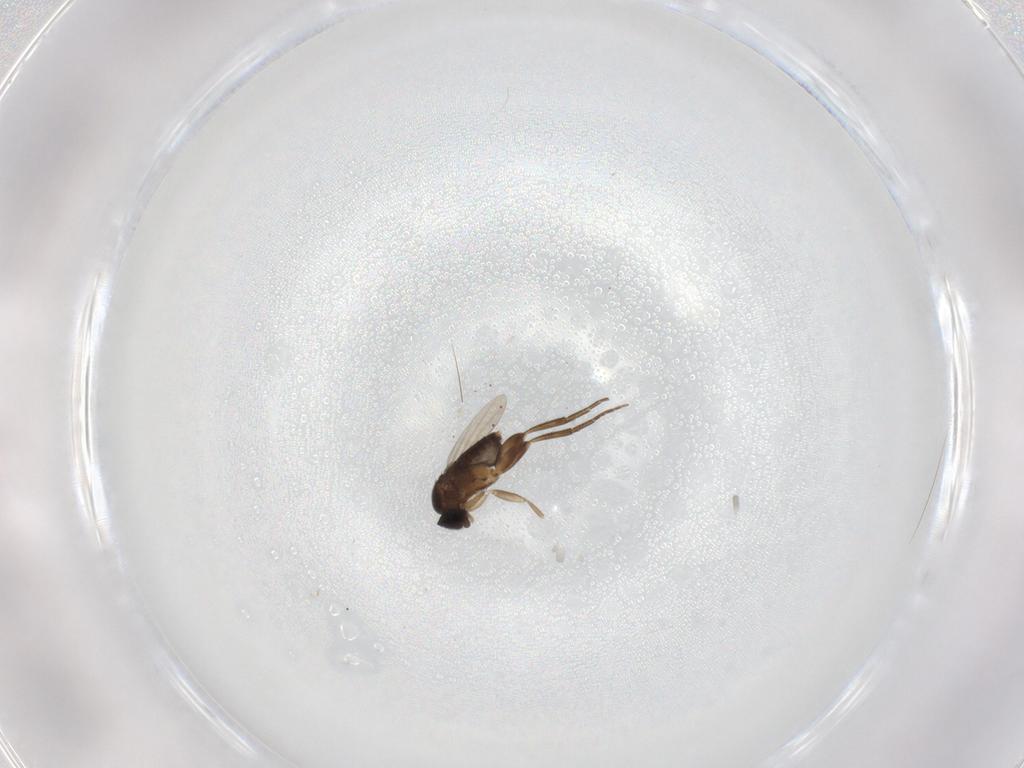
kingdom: Animalia
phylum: Arthropoda
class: Insecta
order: Diptera
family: Phoridae
